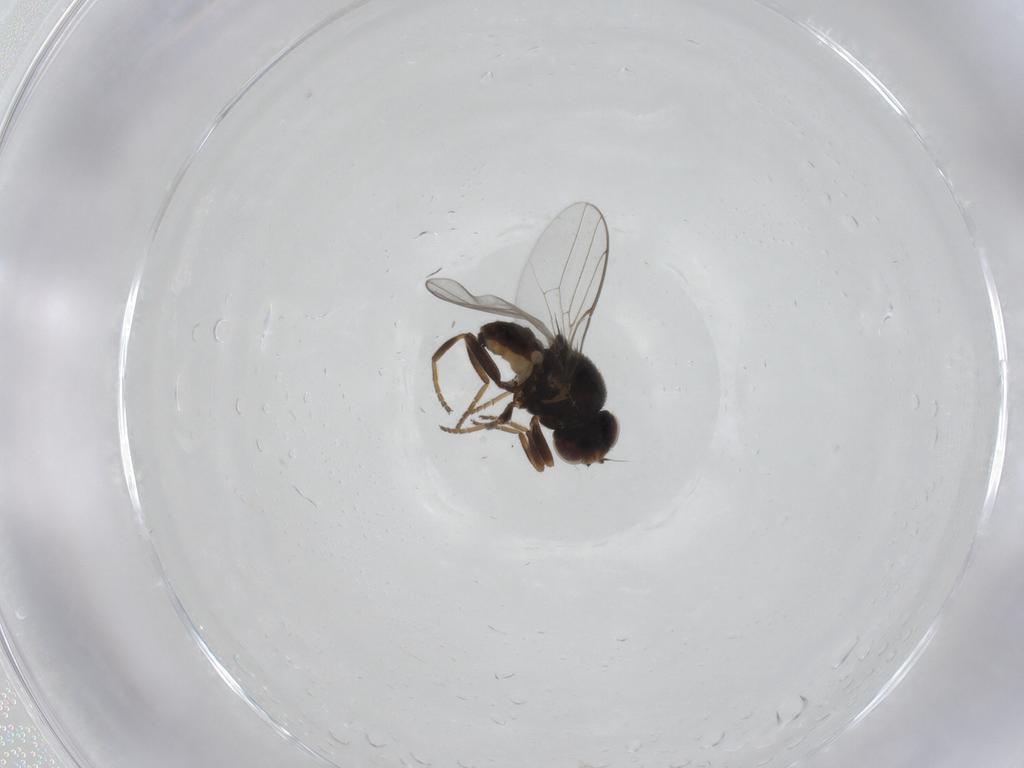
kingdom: Animalia
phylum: Arthropoda
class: Insecta
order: Diptera
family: Chloropidae
